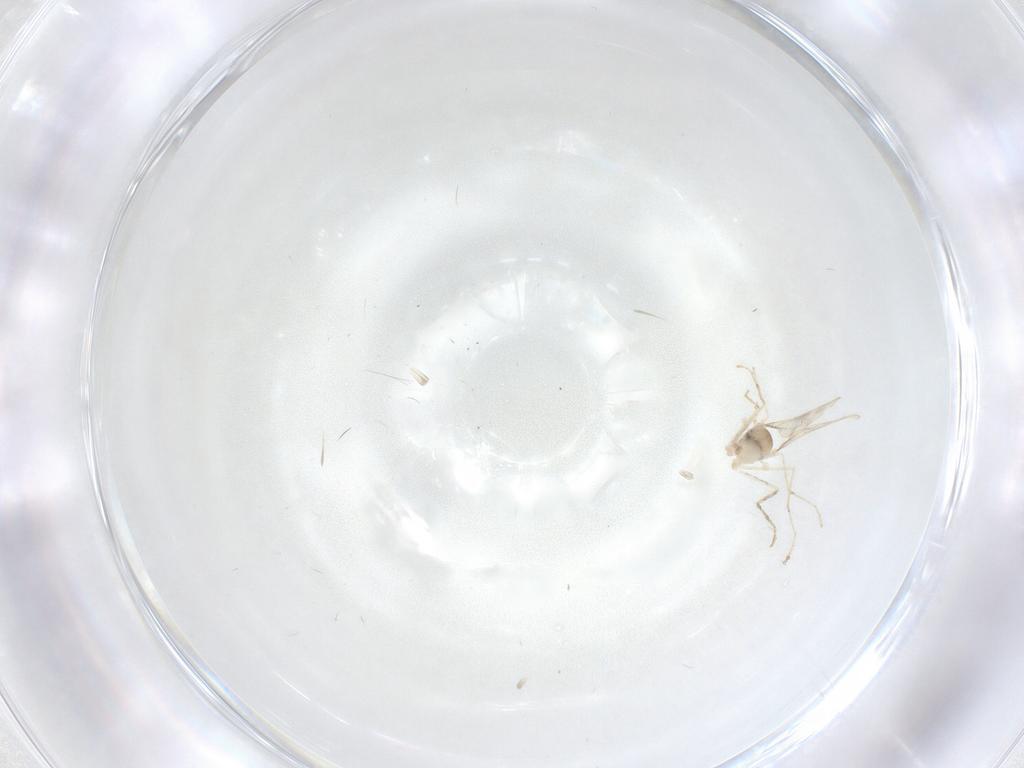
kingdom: Animalia
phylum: Arthropoda
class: Insecta
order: Diptera
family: Cecidomyiidae
